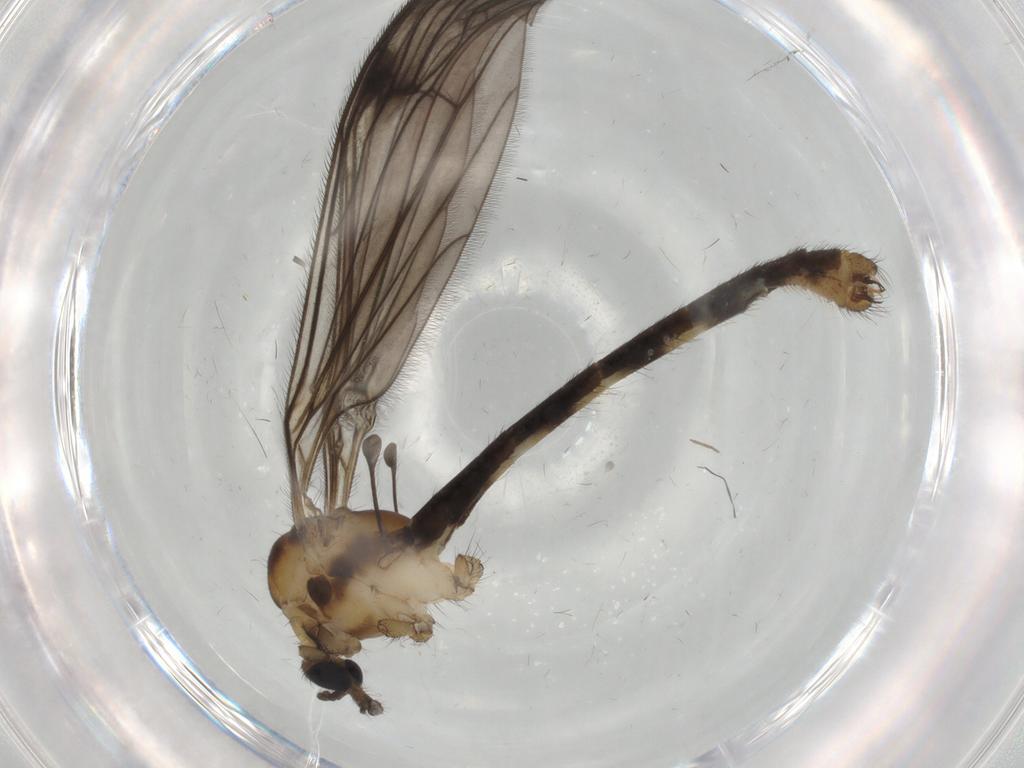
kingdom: Animalia
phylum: Arthropoda
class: Insecta
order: Diptera
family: Limoniidae
